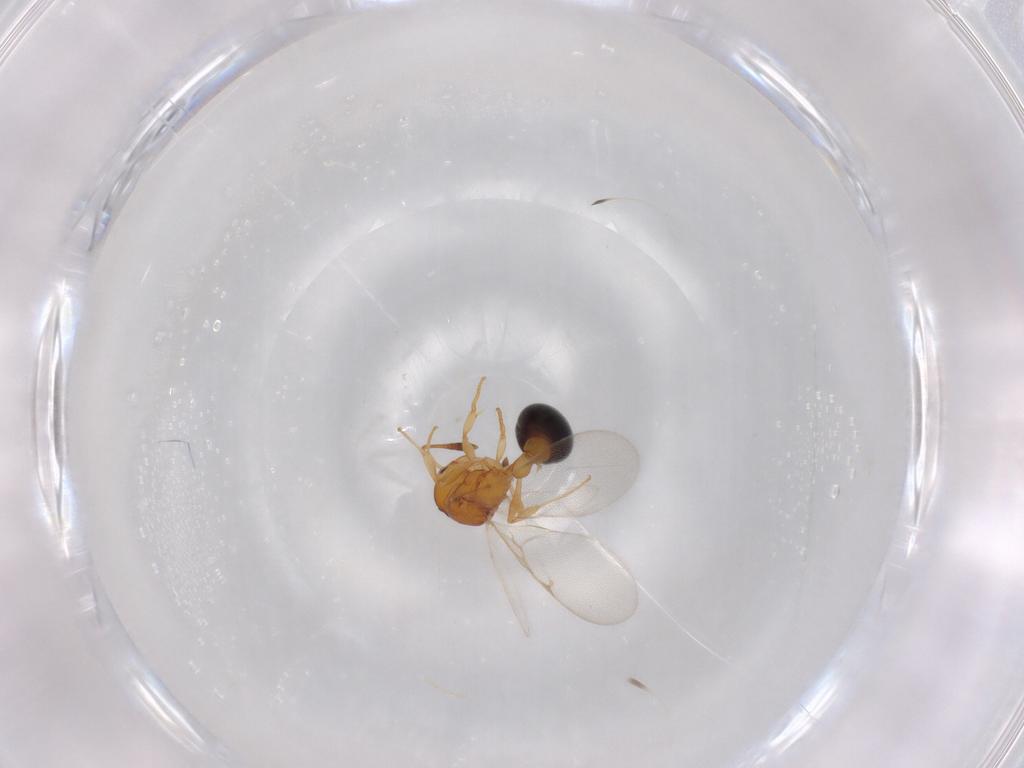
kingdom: Animalia
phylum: Arthropoda
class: Insecta
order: Hymenoptera
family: Formicidae
